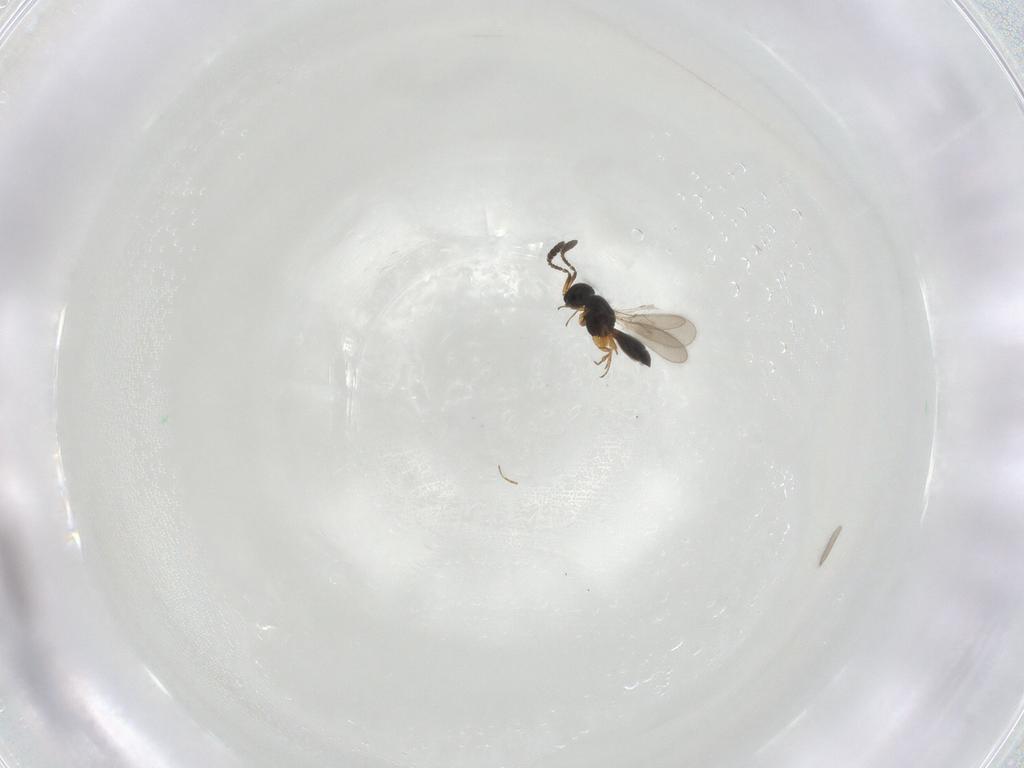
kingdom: Animalia
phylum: Arthropoda
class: Insecta
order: Hymenoptera
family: Scelionidae
